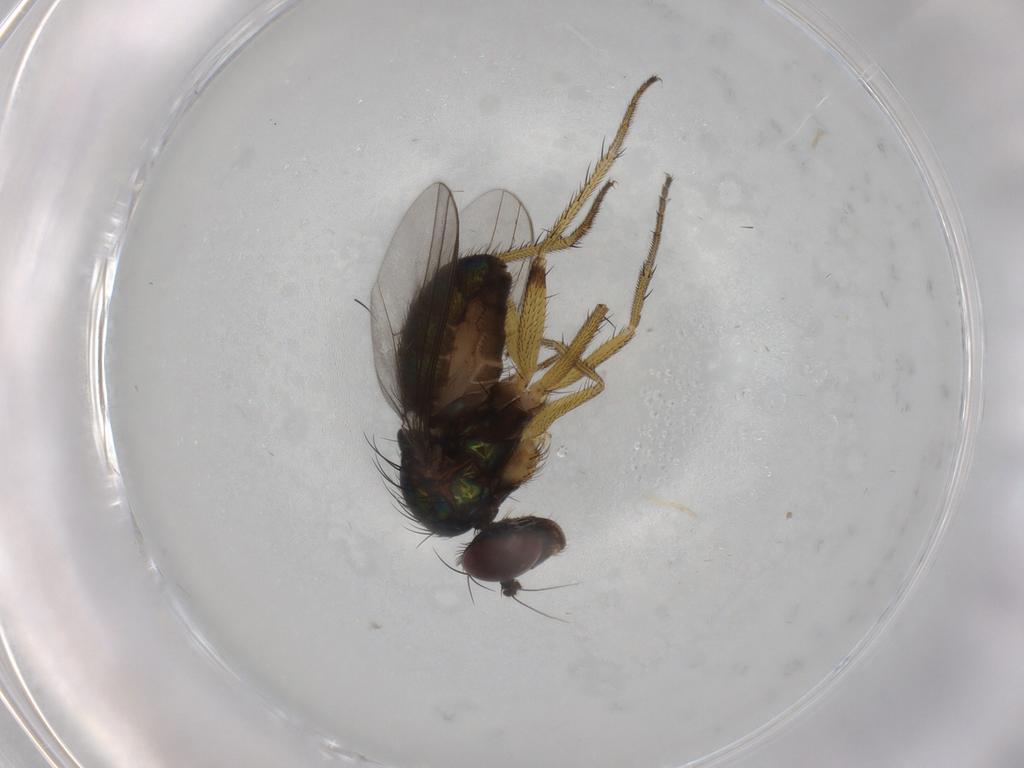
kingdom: Animalia
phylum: Arthropoda
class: Insecta
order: Diptera
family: Dolichopodidae
